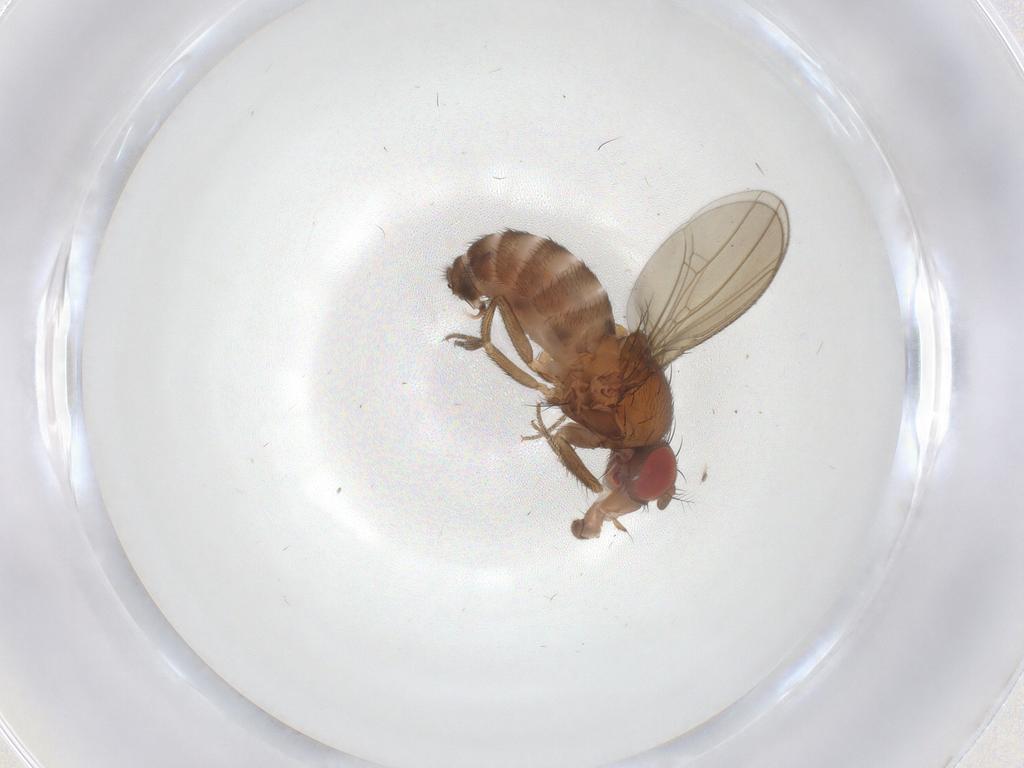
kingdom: Animalia
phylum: Arthropoda
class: Insecta
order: Diptera
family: Drosophilidae
